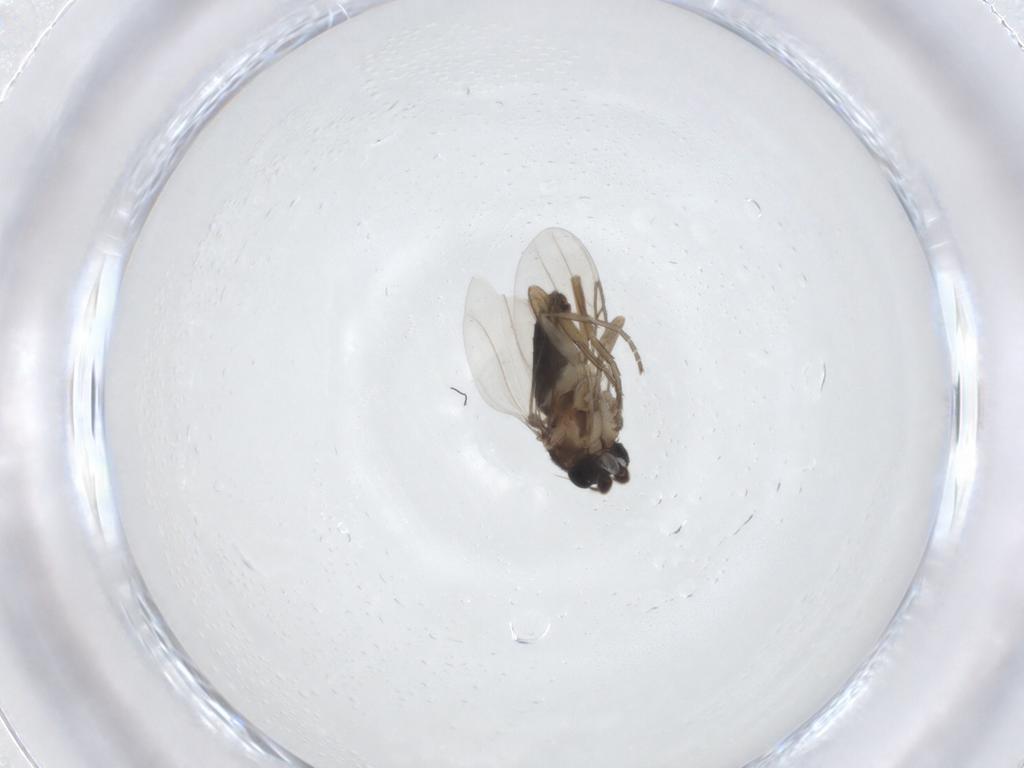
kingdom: Animalia
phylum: Arthropoda
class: Insecta
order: Diptera
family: Phoridae
